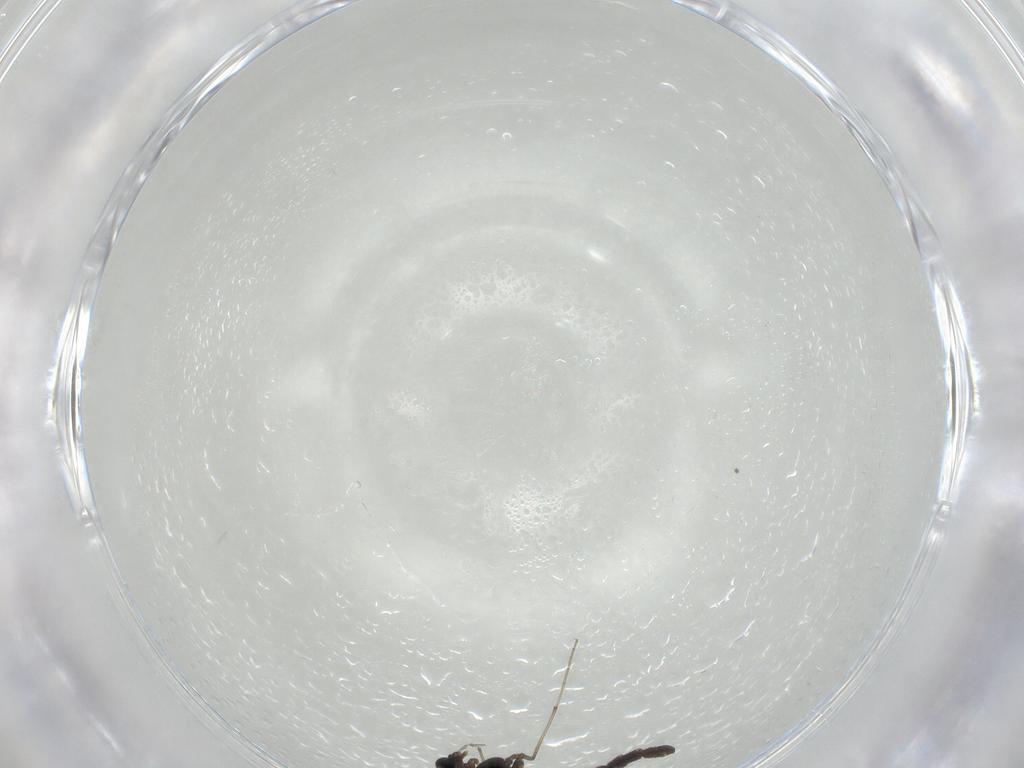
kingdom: Animalia
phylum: Arthropoda
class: Insecta
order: Diptera
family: Chironomidae
